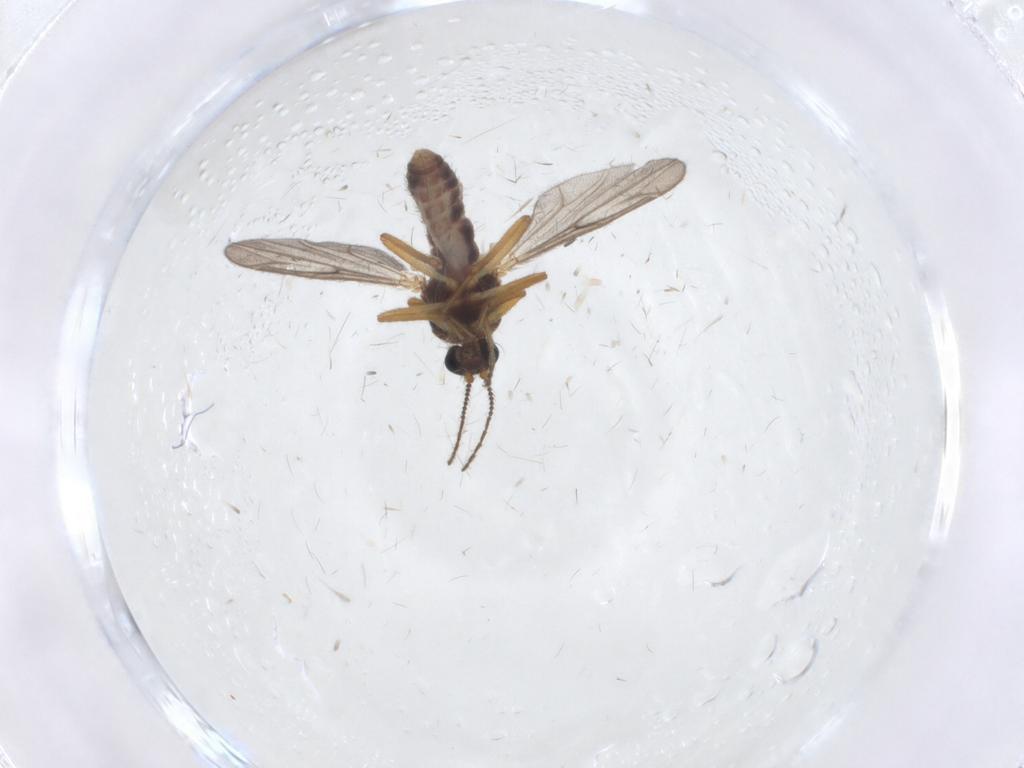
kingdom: Animalia
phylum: Arthropoda
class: Insecta
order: Diptera
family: Ceratopogonidae
